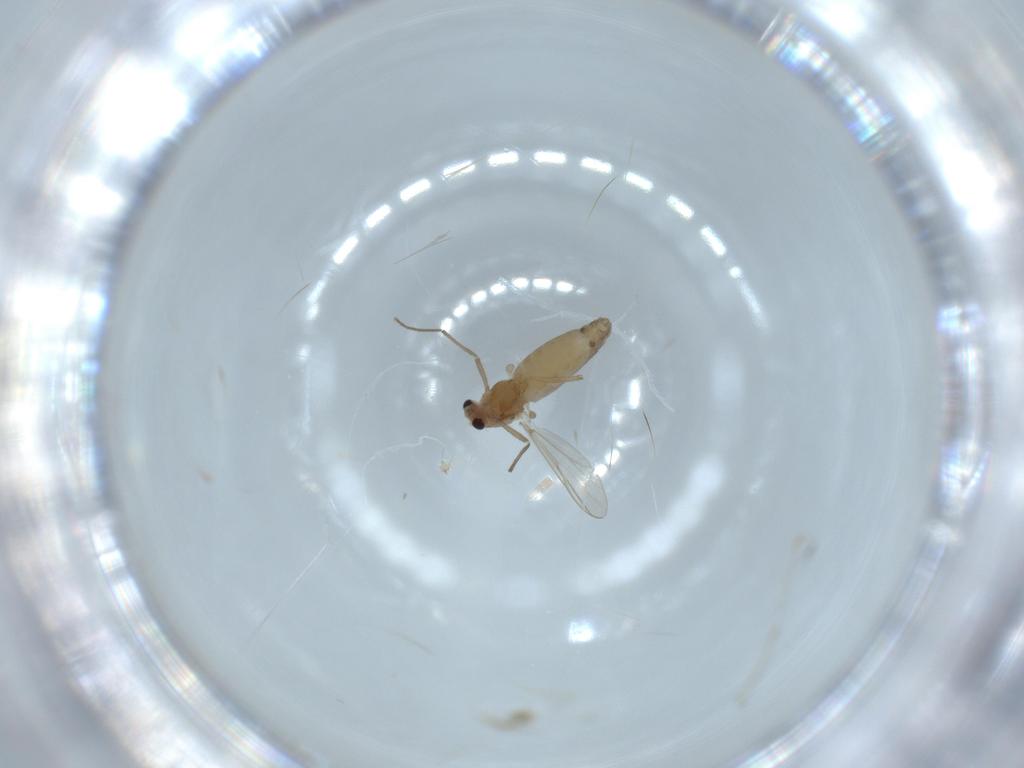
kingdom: Animalia
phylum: Arthropoda
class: Insecta
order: Diptera
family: Chironomidae
